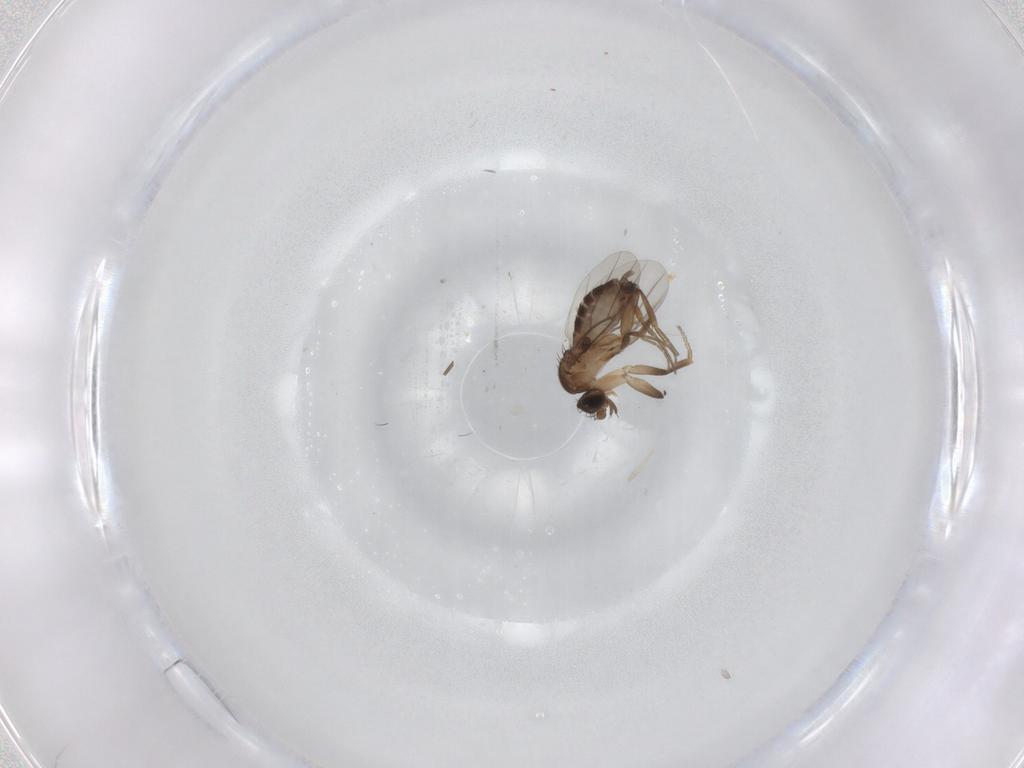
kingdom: Animalia
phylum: Arthropoda
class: Insecta
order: Diptera
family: Phoridae
